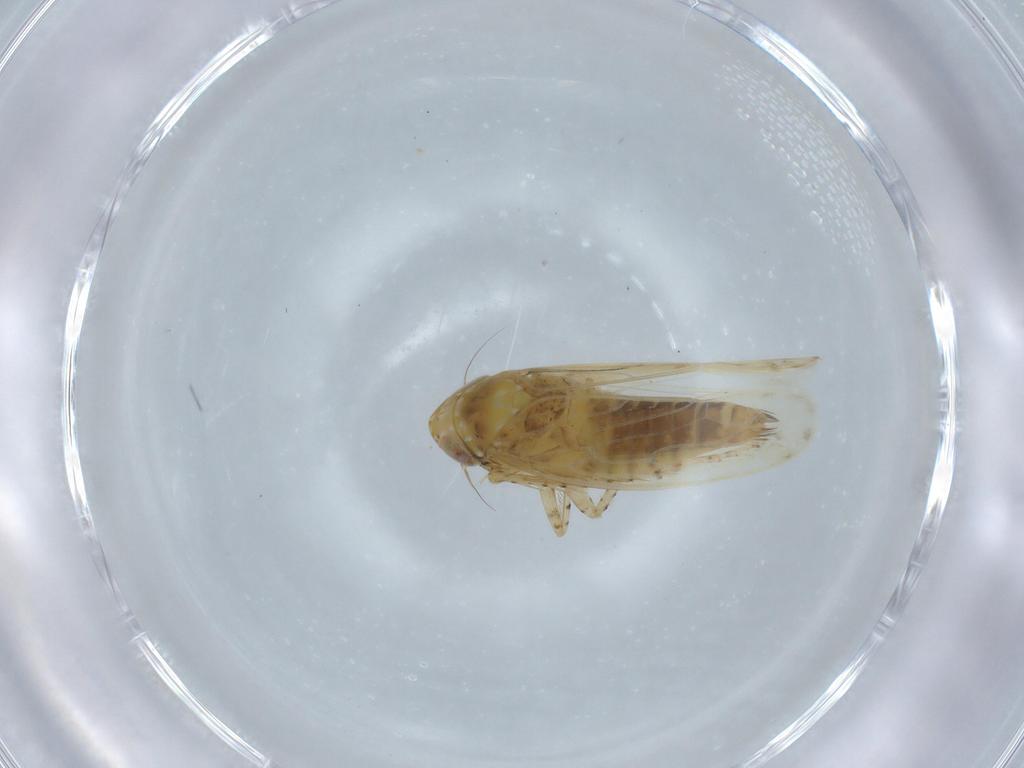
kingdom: Animalia
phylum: Arthropoda
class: Insecta
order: Hemiptera
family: Cicadellidae
